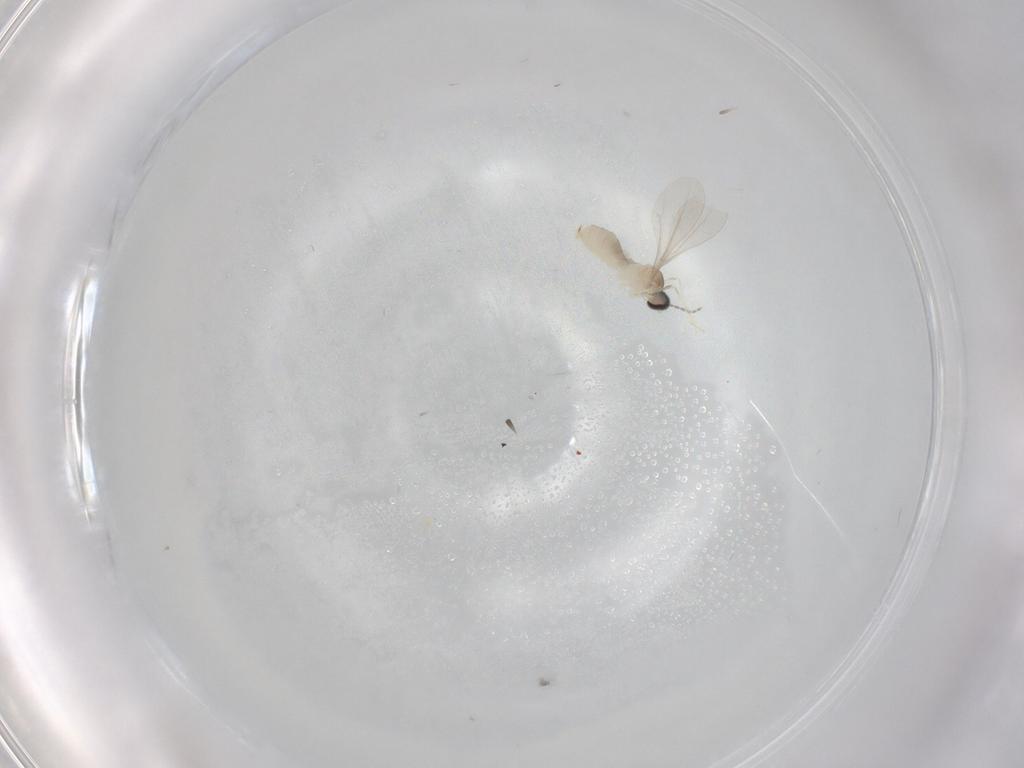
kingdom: Animalia
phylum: Arthropoda
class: Insecta
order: Diptera
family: Cecidomyiidae
